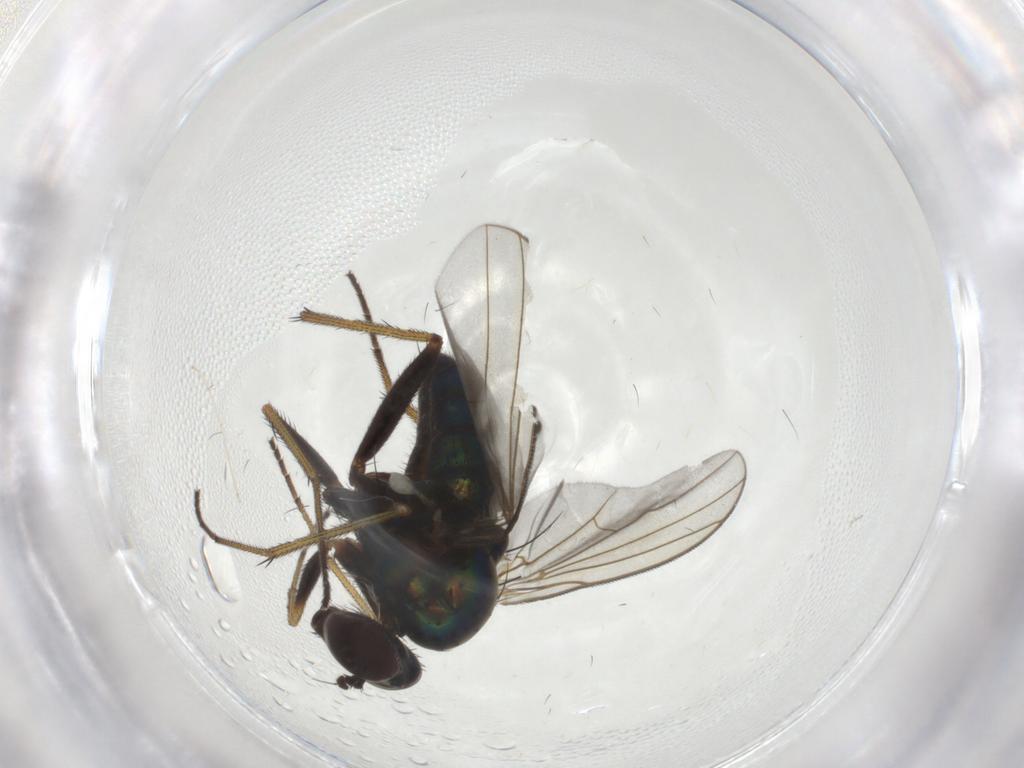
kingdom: Animalia
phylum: Arthropoda
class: Insecta
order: Diptera
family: Dolichopodidae
